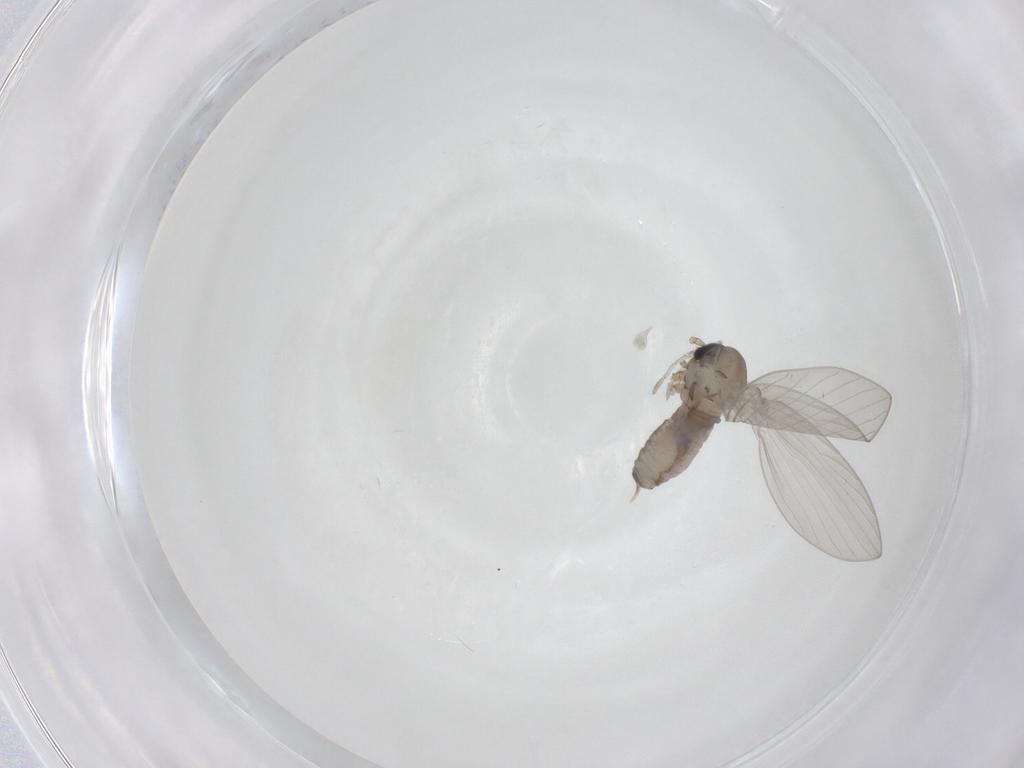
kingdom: Animalia
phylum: Arthropoda
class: Insecta
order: Diptera
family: Psychodidae
